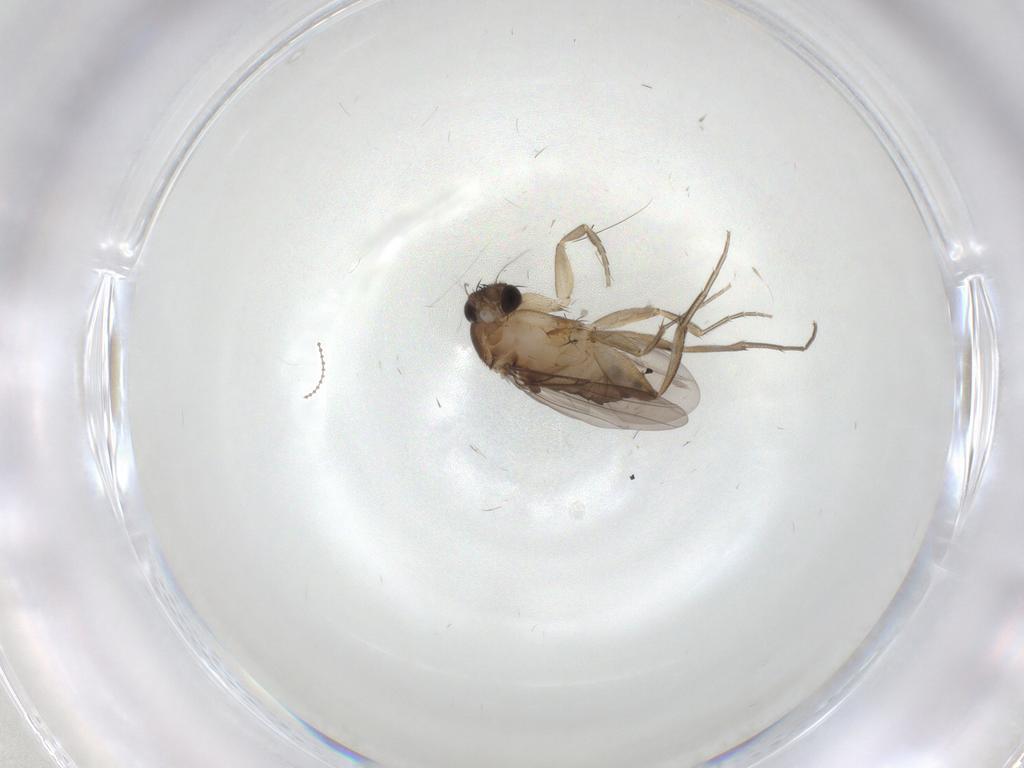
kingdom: Animalia
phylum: Arthropoda
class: Insecta
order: Diptera
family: Phoridae
